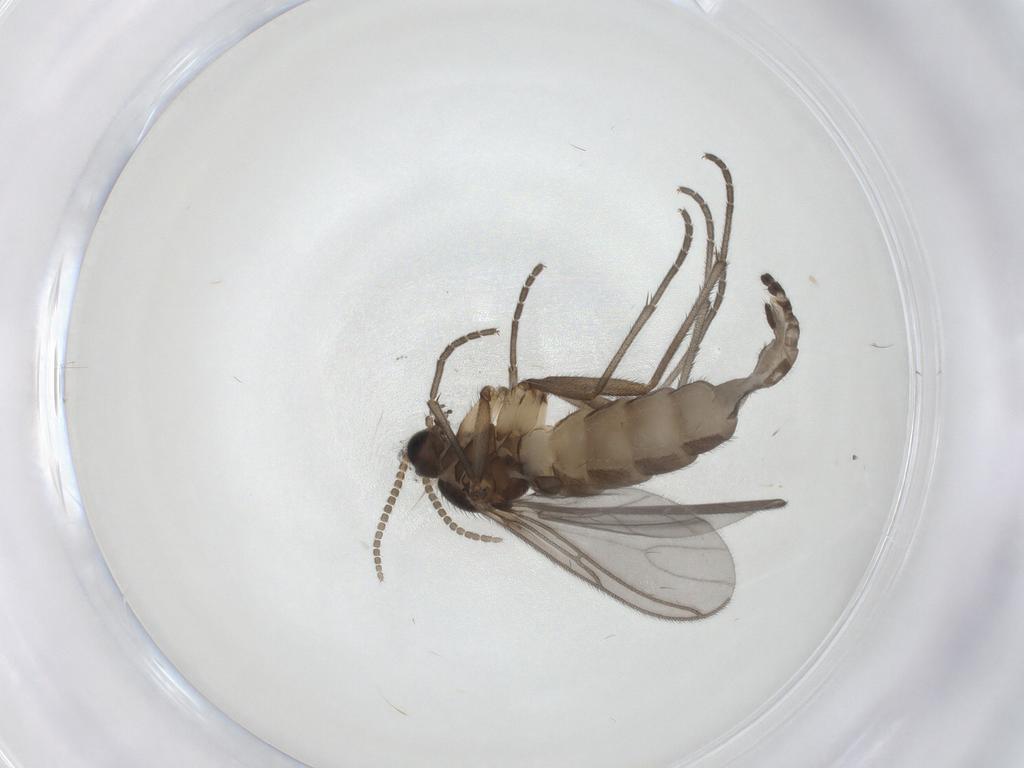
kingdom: Animalia
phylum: Arthropoda
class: Insecta
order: Diptera
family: Sciaridae
